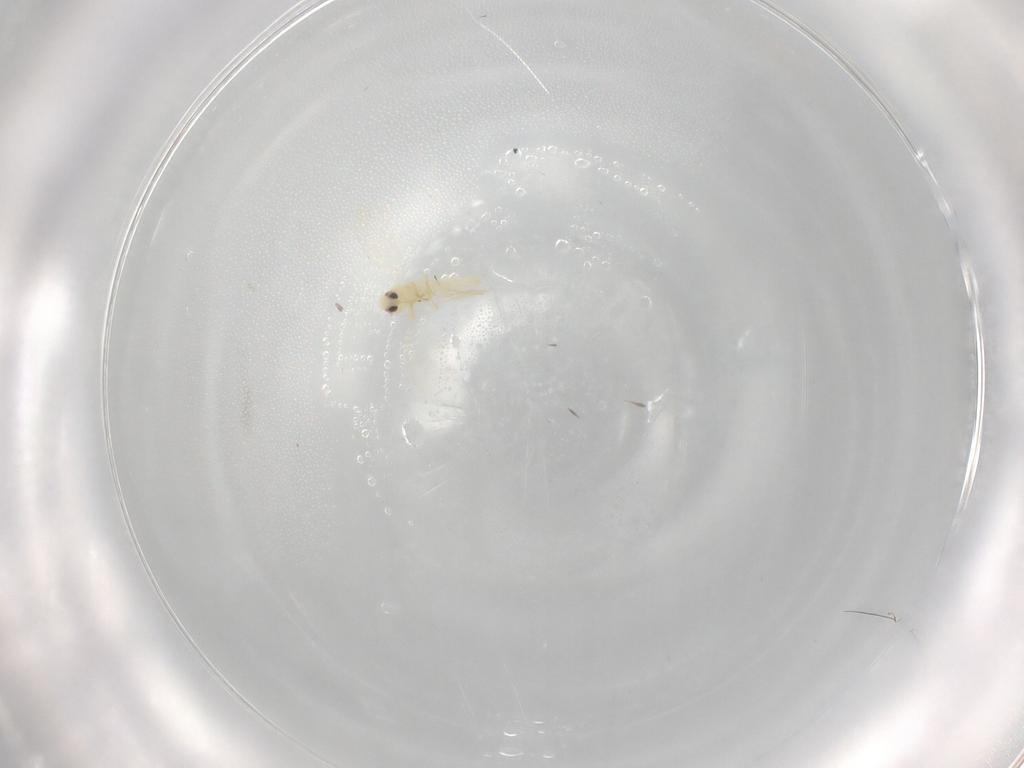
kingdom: Animalia
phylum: Arthropoda
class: Insecta
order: Hemiptera
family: Aleyrodidae
